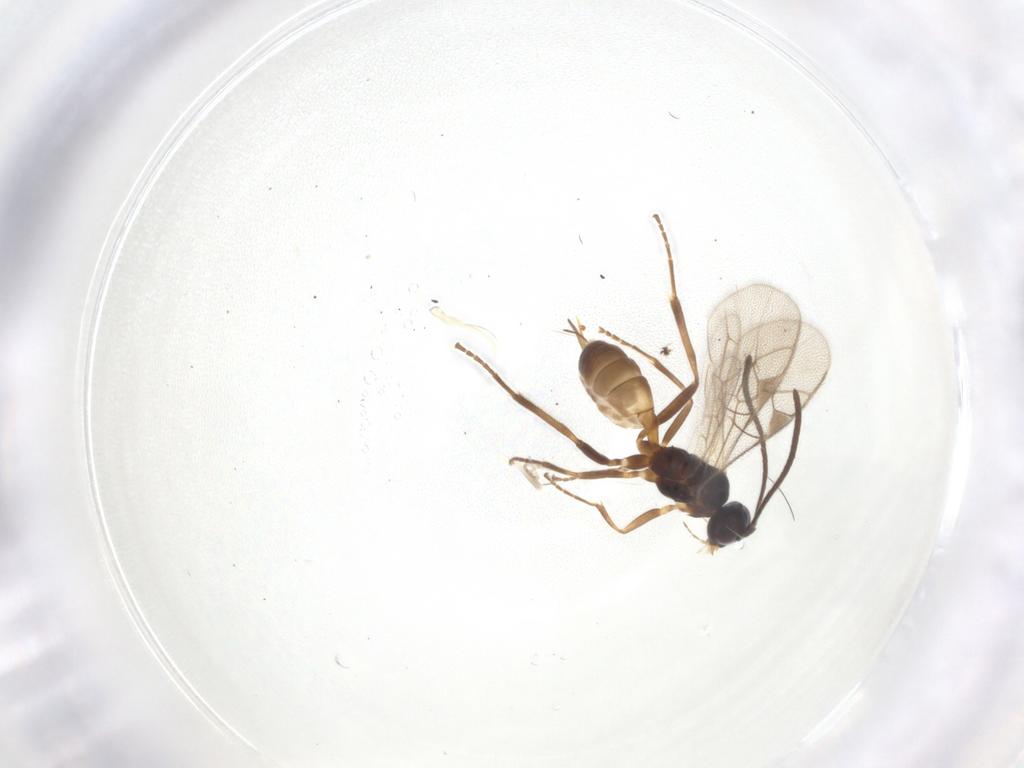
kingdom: Animalia
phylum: Arthropoda
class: Insecta
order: Hymenoptera
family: Ichneumonidae
